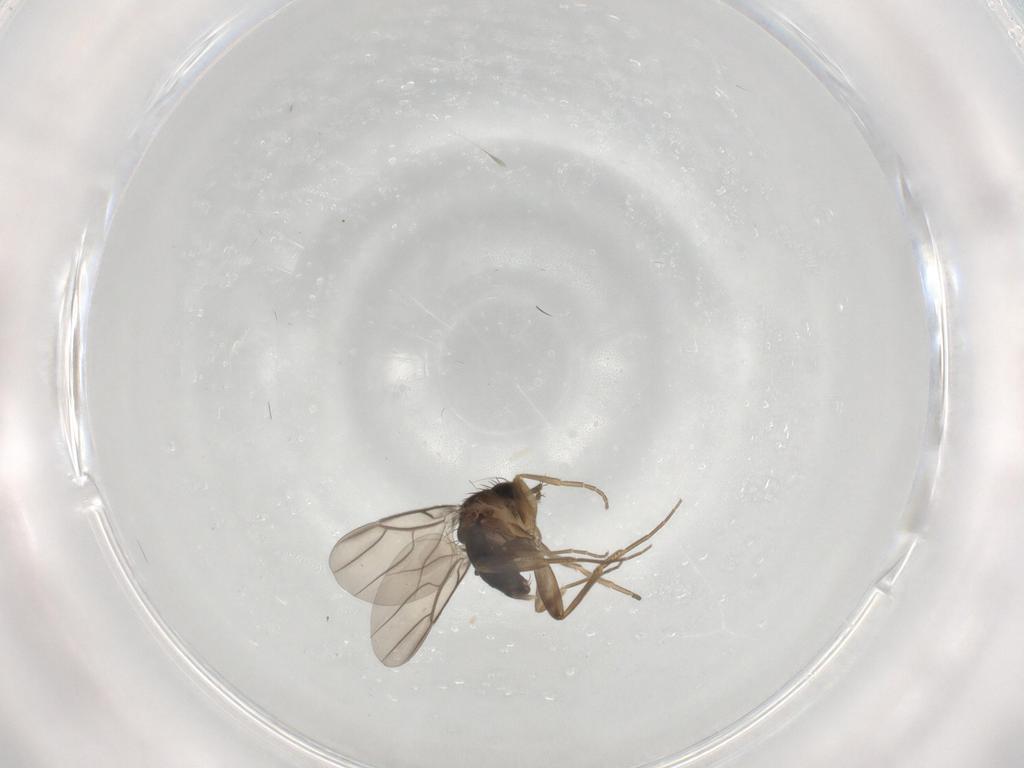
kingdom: Animalia
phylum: Arthropoda
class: Insecta
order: Diptera
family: Phoridae
